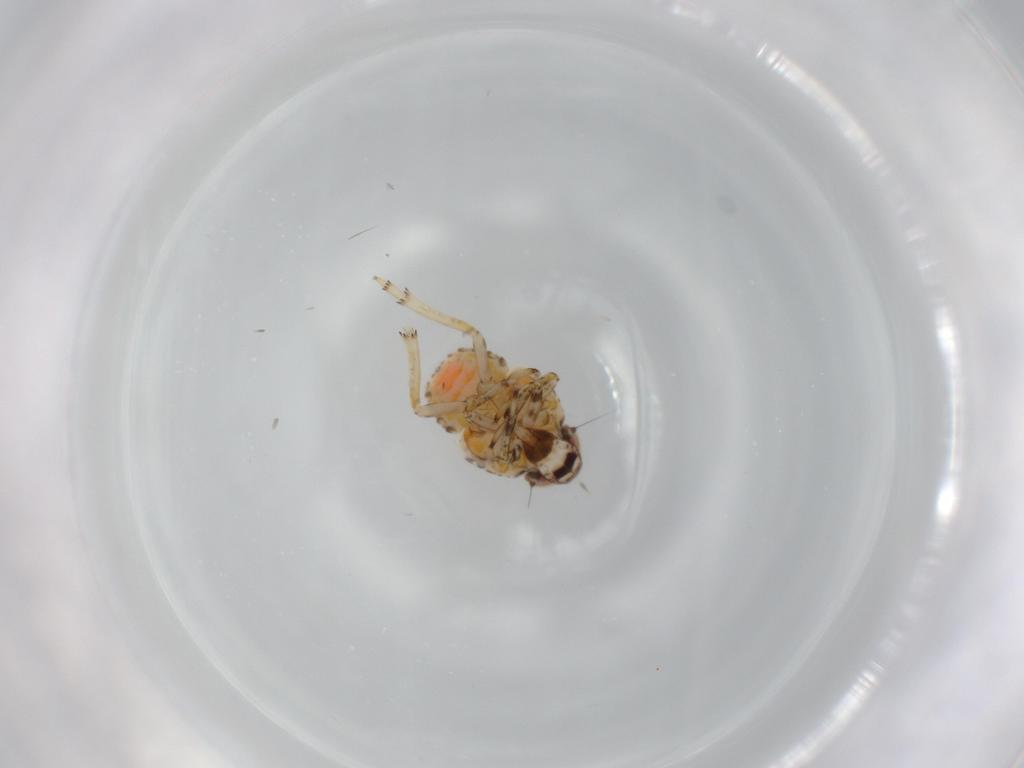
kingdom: Animalia
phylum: Arthropoda
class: Insecta
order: Hemiptera
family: Issidae
